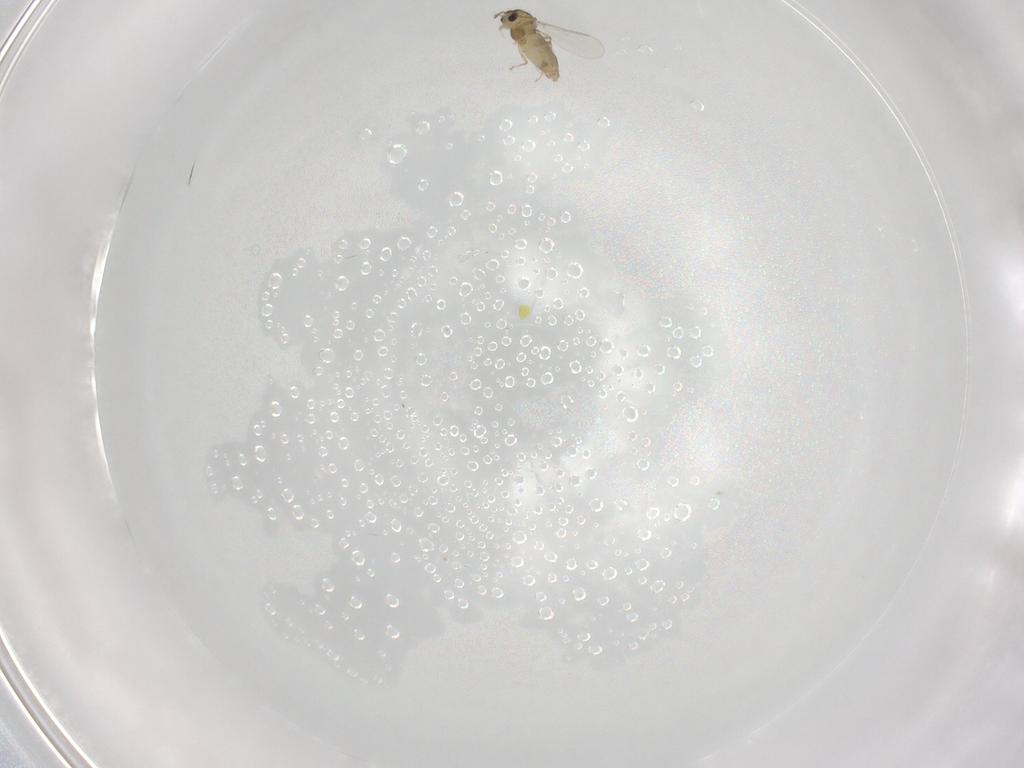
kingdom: Animalia
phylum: Arthropoda
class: Insecta
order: Diptera
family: Chironomidae
